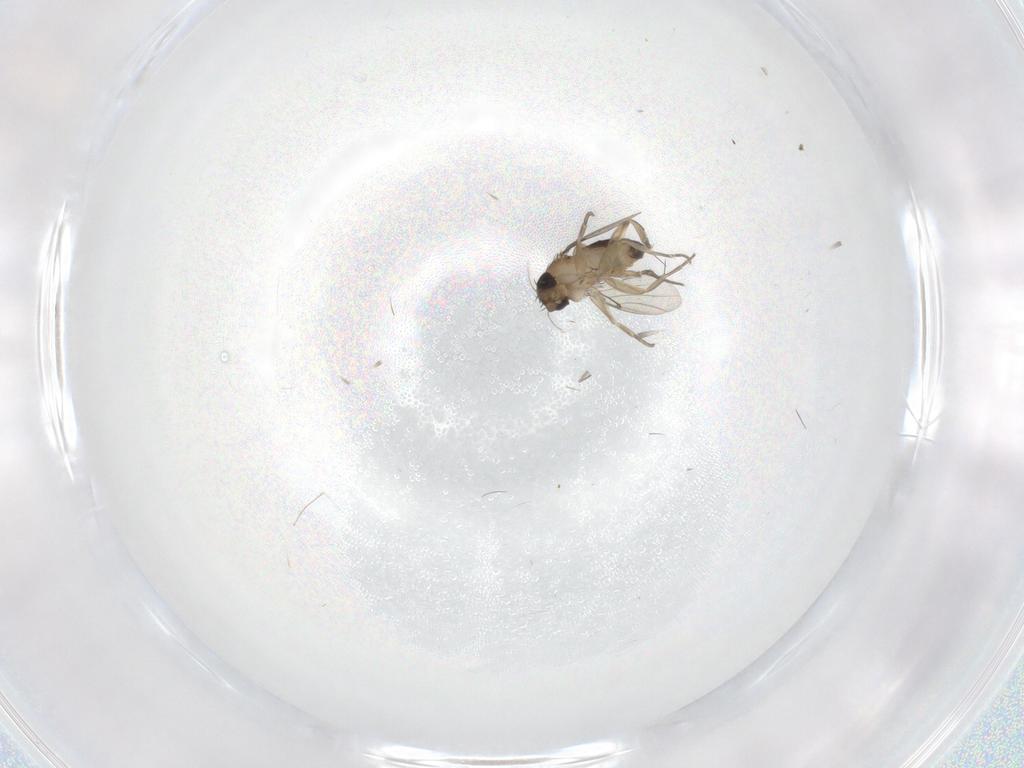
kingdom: Animalia
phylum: Arthropoda
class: Insecta
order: Diptera
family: Phoridae
